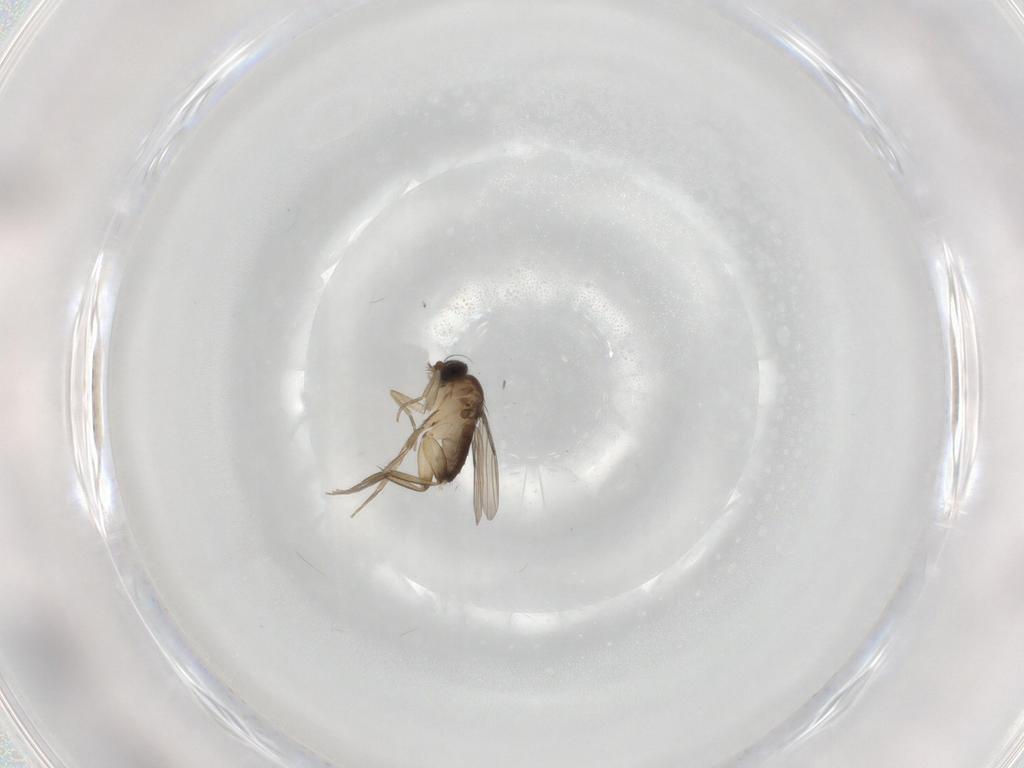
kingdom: Animalia
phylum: Arthropoda
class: Insecta
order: Diptera
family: Phoridae
